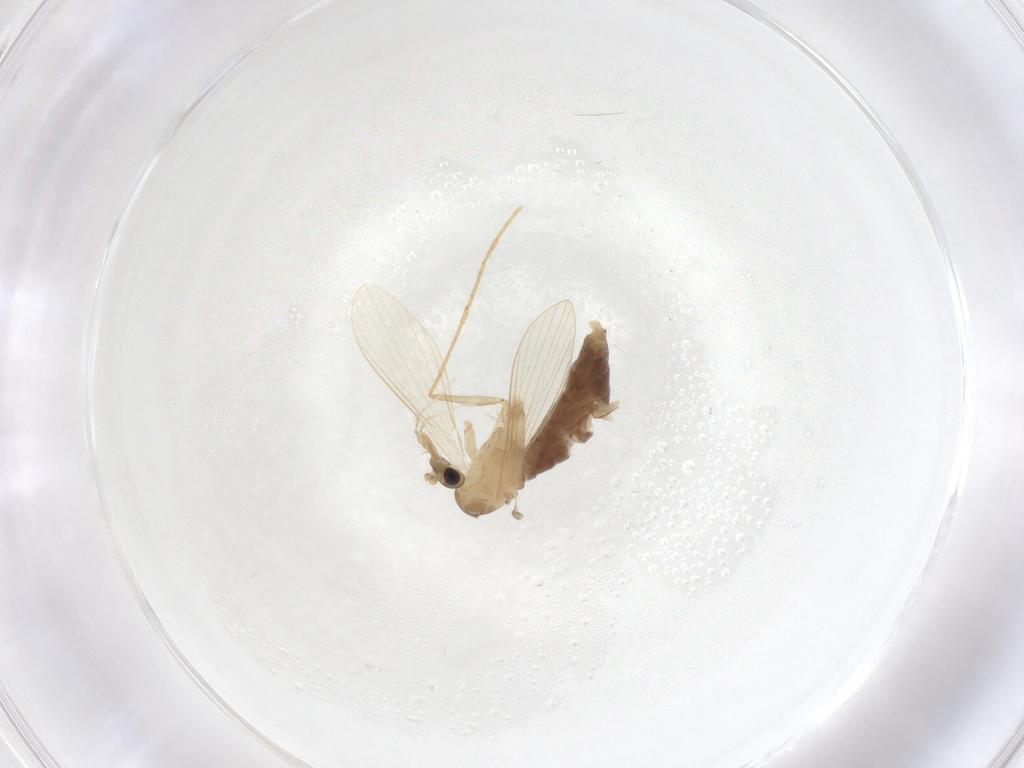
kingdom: Animalia
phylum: Arthropoda
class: Insecta
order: Diptera
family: Psychodidae
